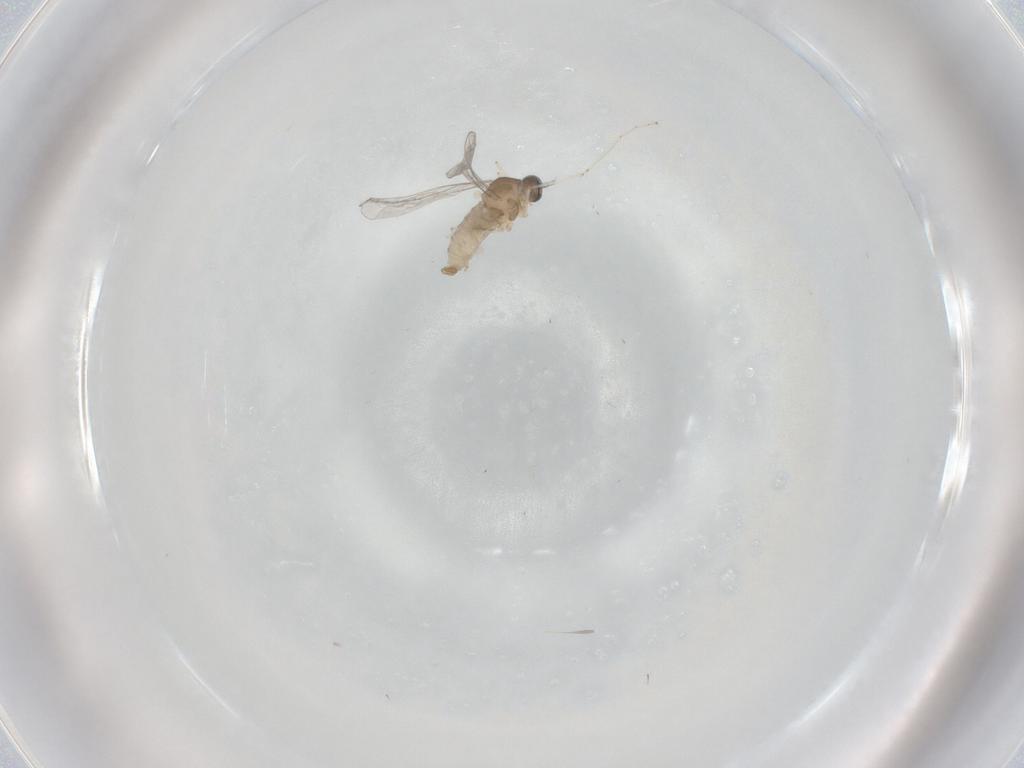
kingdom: Animalia
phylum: Arthropoda
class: Insecta
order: Diptera
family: Cecidomyiidae
